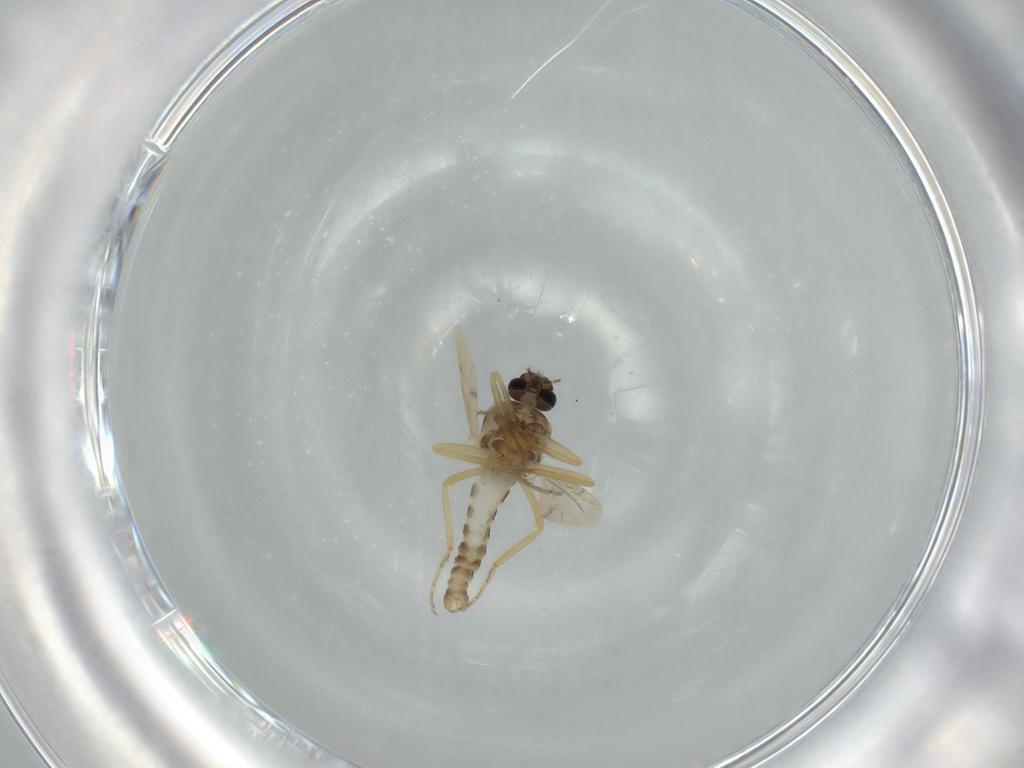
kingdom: Animalia
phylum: Arthropoda
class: Insecta
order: Diptera
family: Ceratopogonidae
